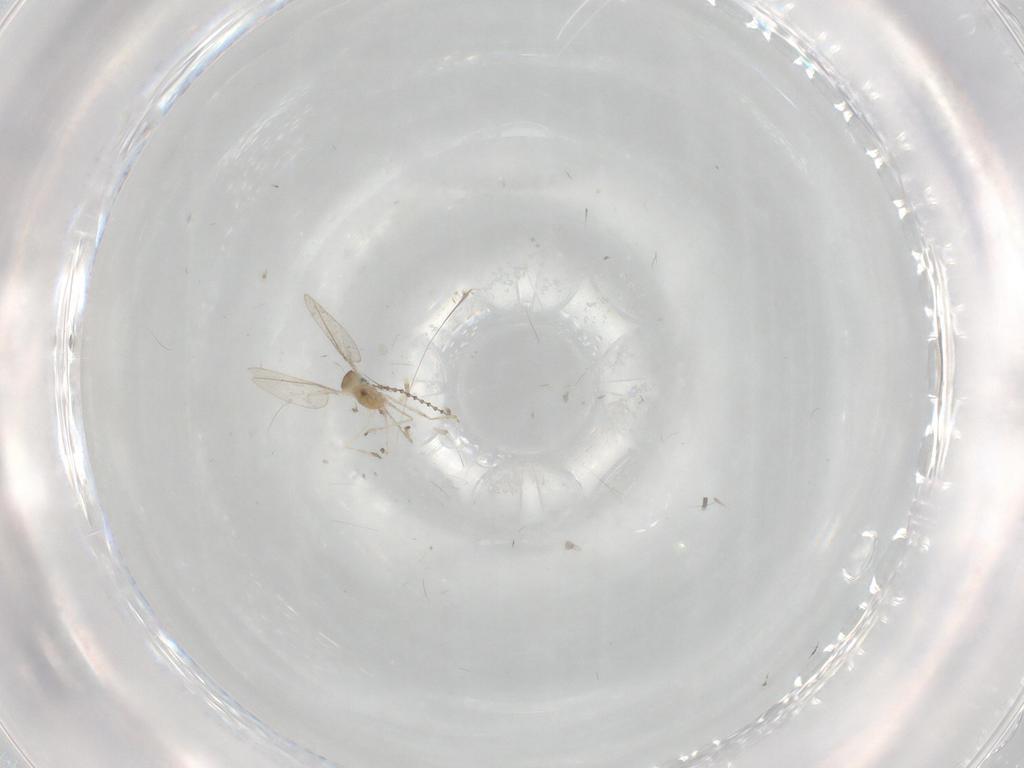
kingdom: Animalia
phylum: Arthropoda
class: Insecta
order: Diptera
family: Cecidomyiidae
